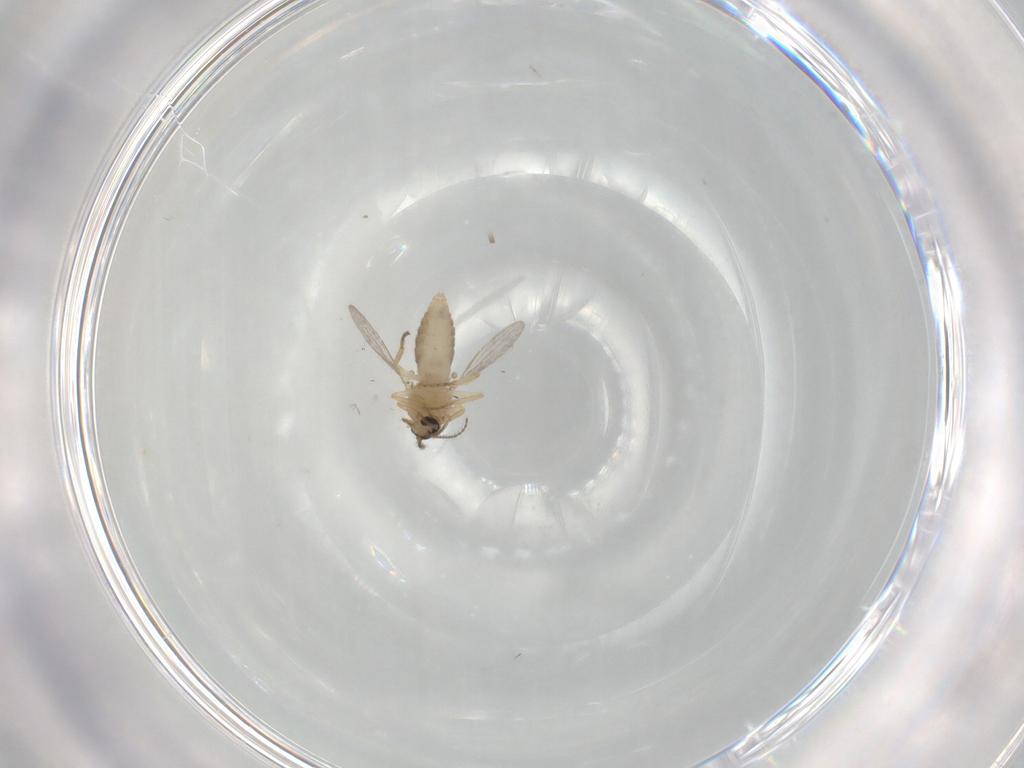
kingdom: Animalia
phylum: Arthropoda
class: Insecta
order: Diptera
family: Ceratopogonidae
